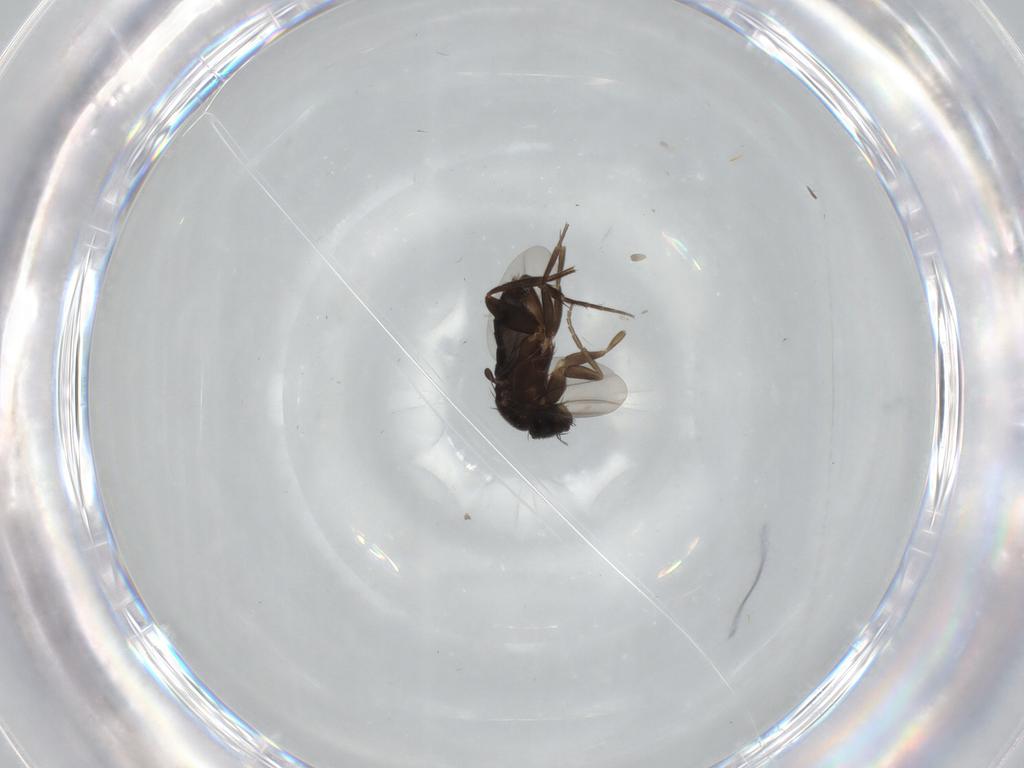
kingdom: Animalia
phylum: Arthropoda
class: Insecta
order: Diptera
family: Phoridae
